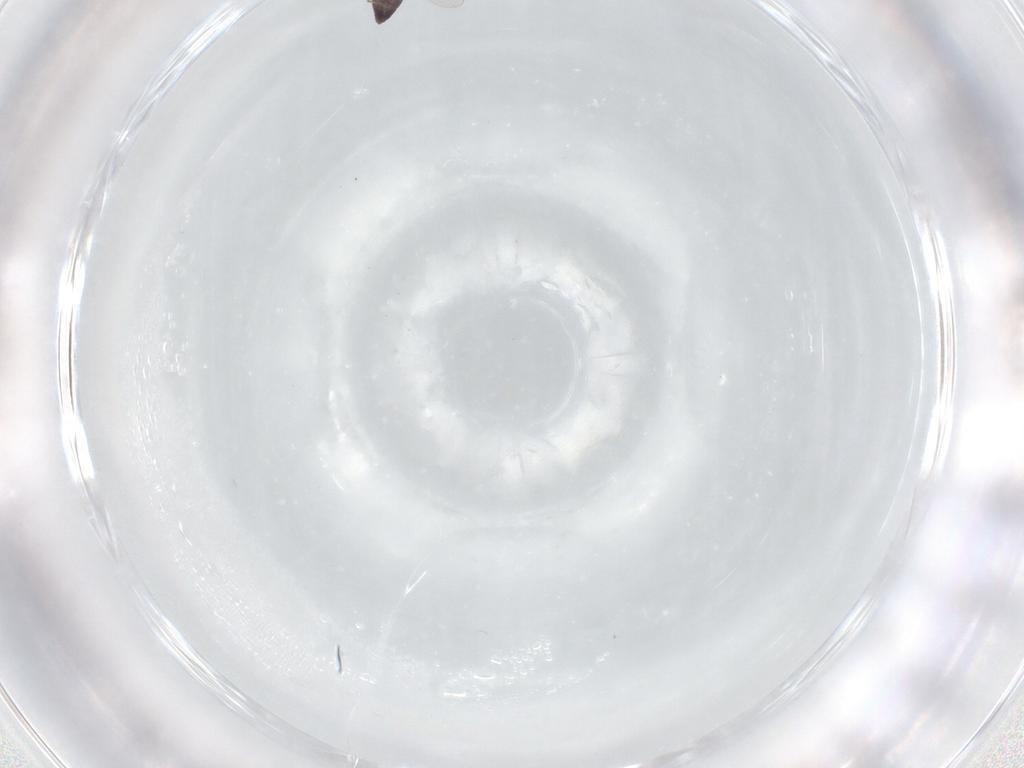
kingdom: Animalia
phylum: Arthropoda
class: Insecta
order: Diptera
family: Chironomidae
